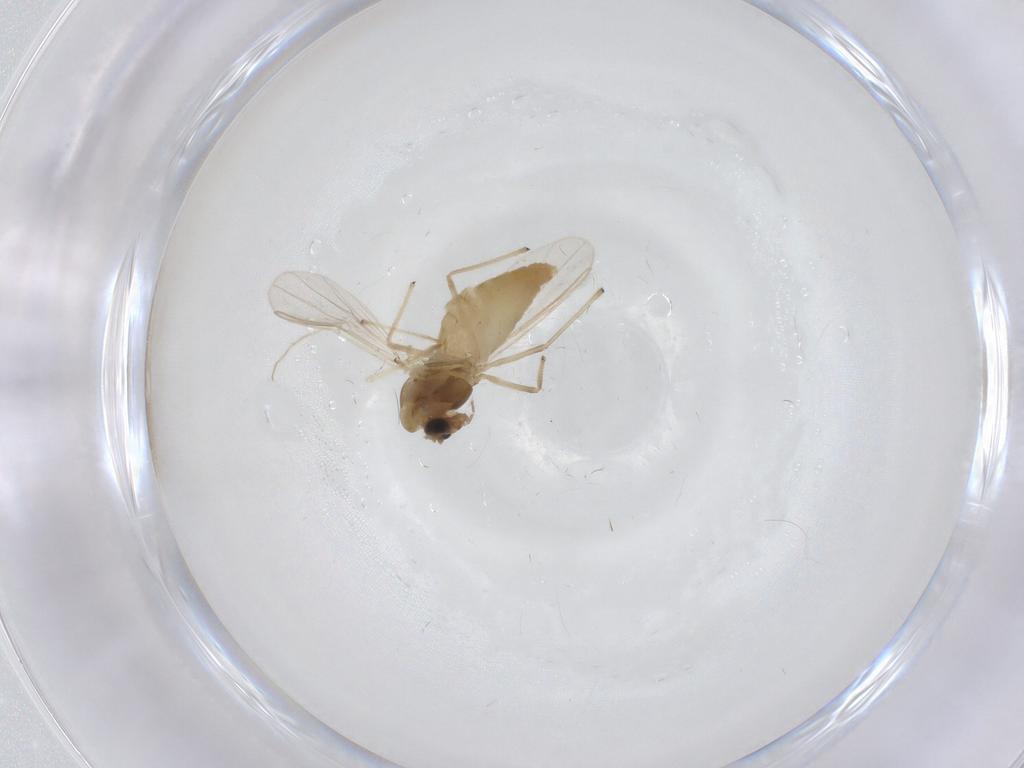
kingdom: Animalia
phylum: Arthropoda
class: Insecta
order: Diptera
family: Chironomidae
